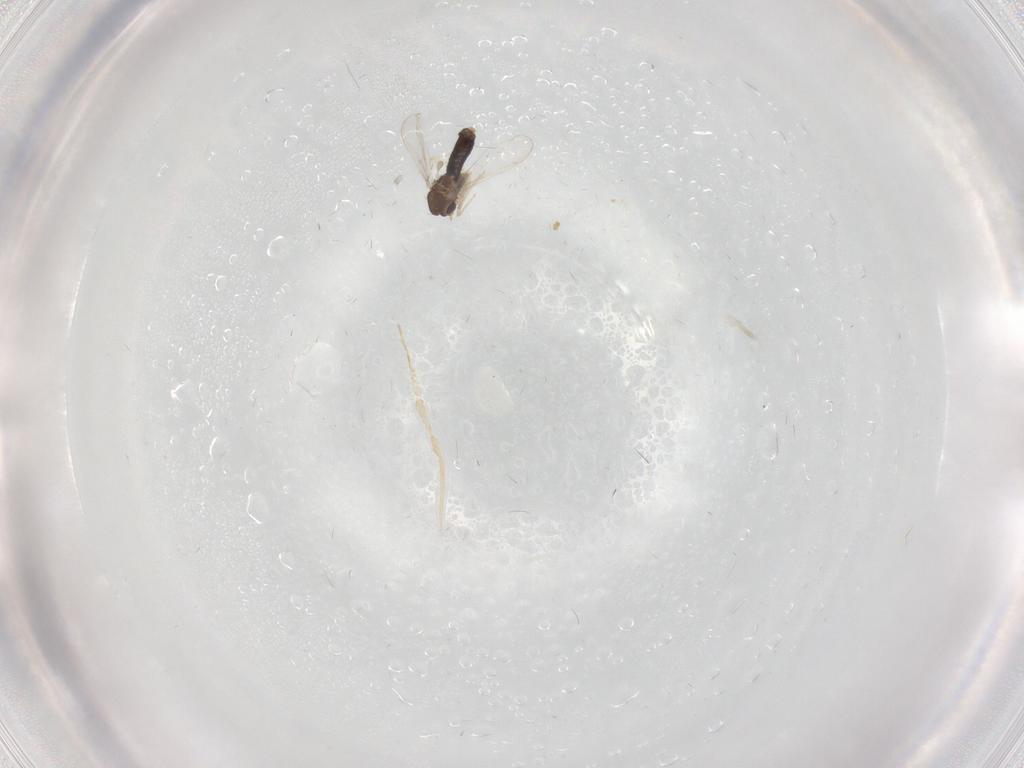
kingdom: Animalia
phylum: Arthropoda
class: Insecta
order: Diptera
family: Chironomidae
